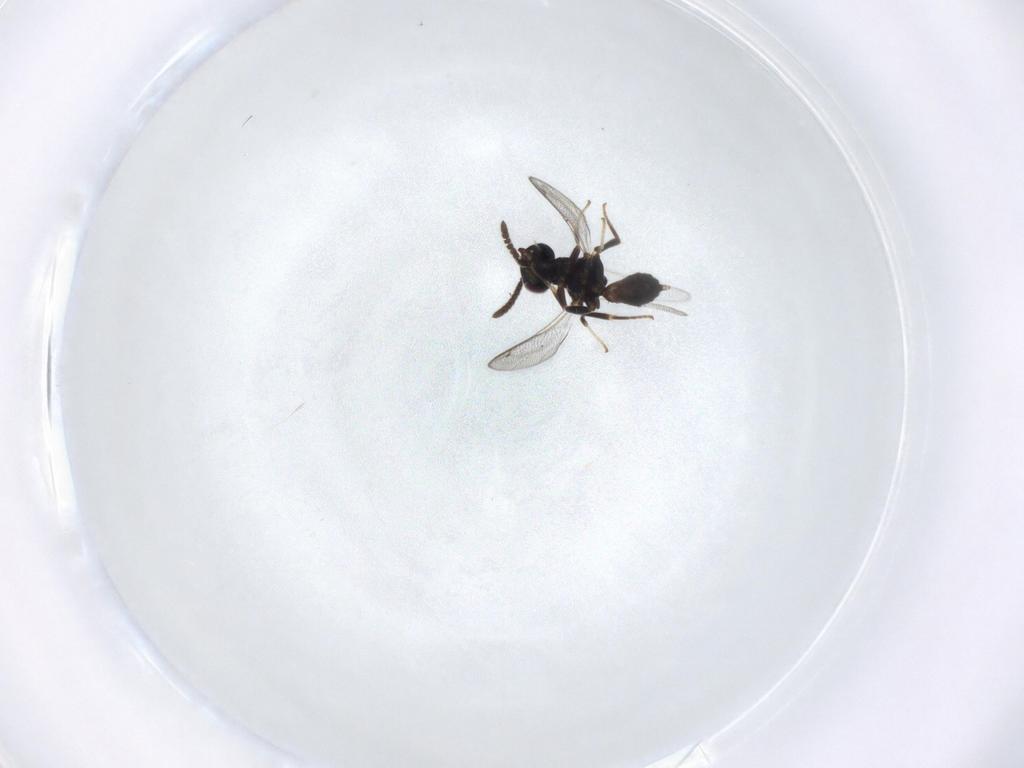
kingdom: Animalia
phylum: Arthropoda
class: Insecta
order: Hymenoptera
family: Cleonyminae
